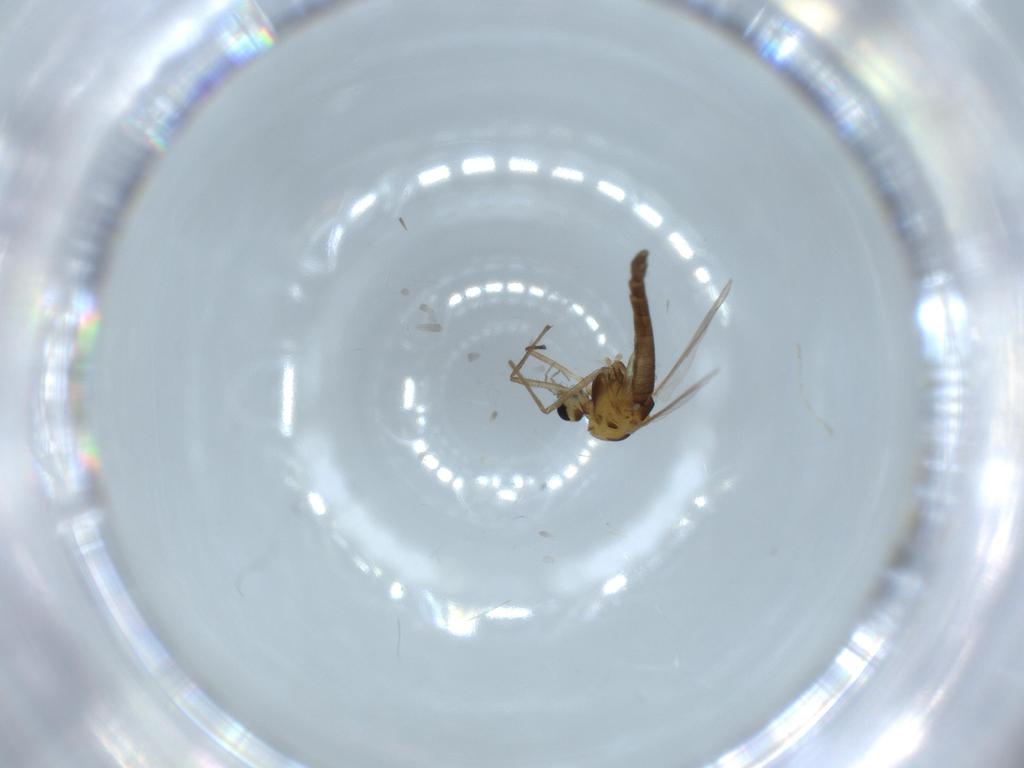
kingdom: Animalia
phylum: Arthropoda
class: Insecta
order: Diptera
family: Chironomidae
